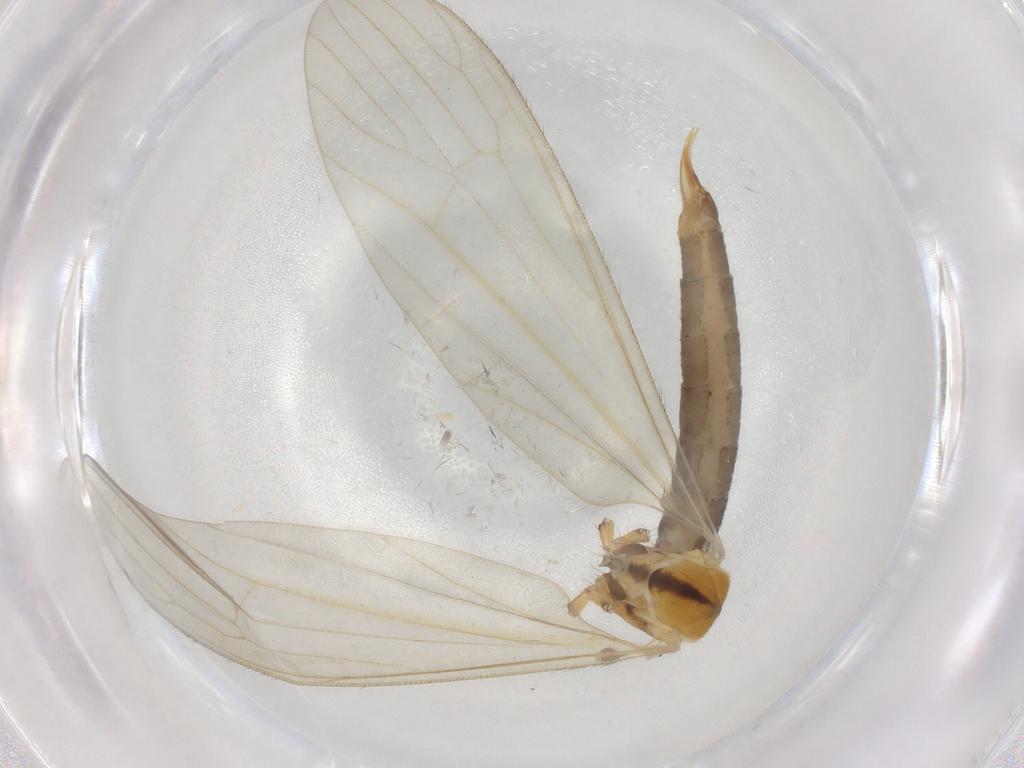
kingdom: Animalia
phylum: Arthropoda
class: Insecta
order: Diptera
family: Limoniidae
